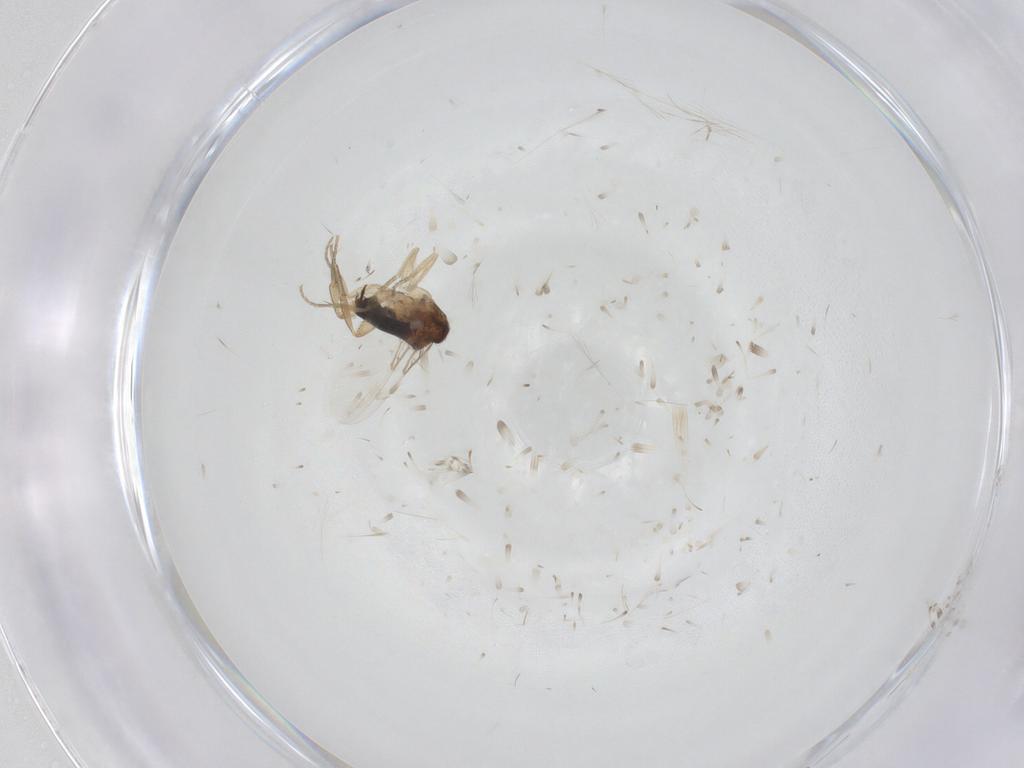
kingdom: Animalia
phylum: Arthropoda
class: Insecta
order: Diptera
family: Milichiidae
